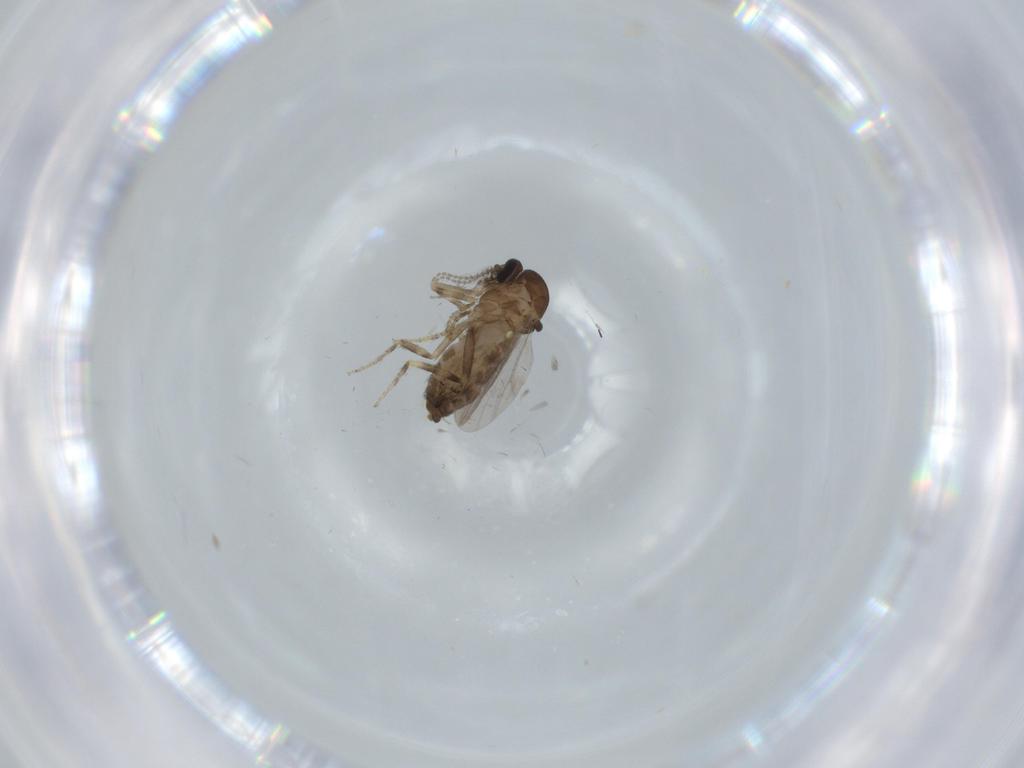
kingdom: Animalia
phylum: Arthropoda
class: Insecta
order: Diptera
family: Ceratopogonidae
